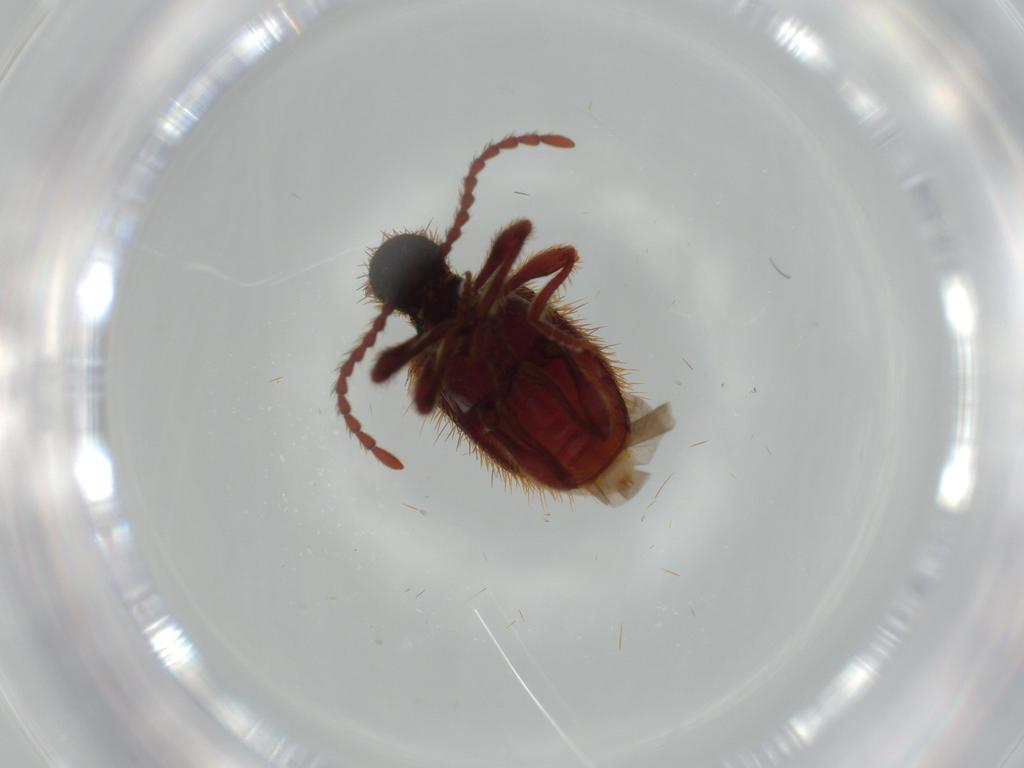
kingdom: Animalia
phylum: Arthropoda
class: Insecta
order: Coleoptera
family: Ptinidae
